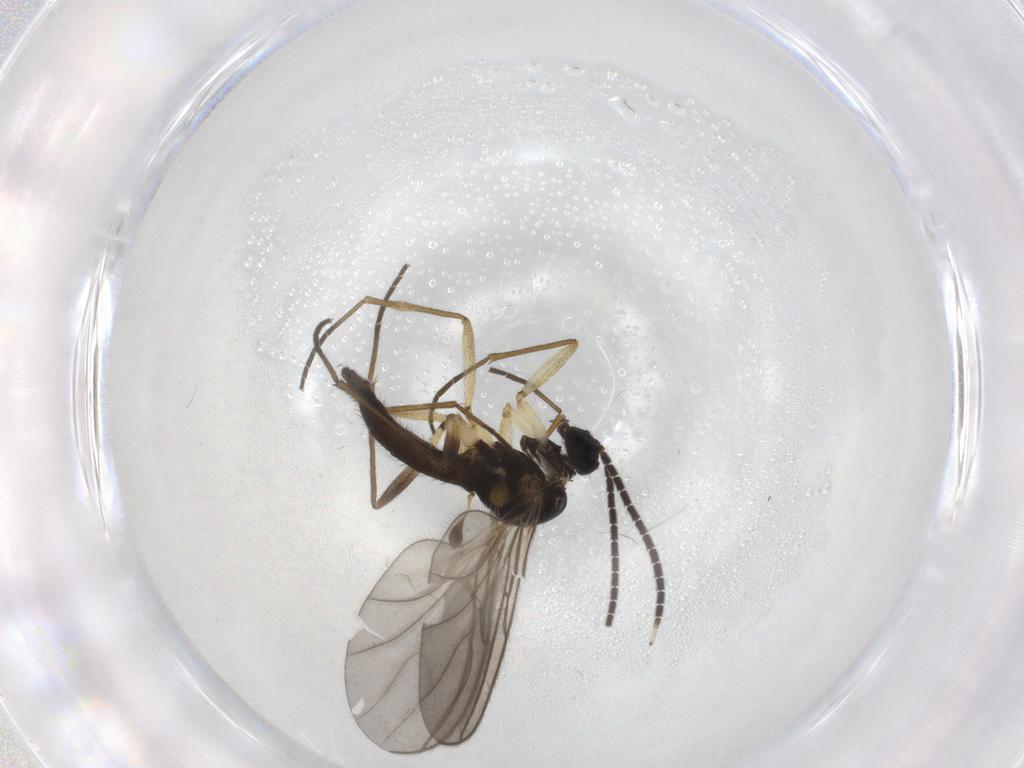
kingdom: Animalia
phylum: Arthropoda
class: Insecta
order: Diptera
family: Sciaridae
